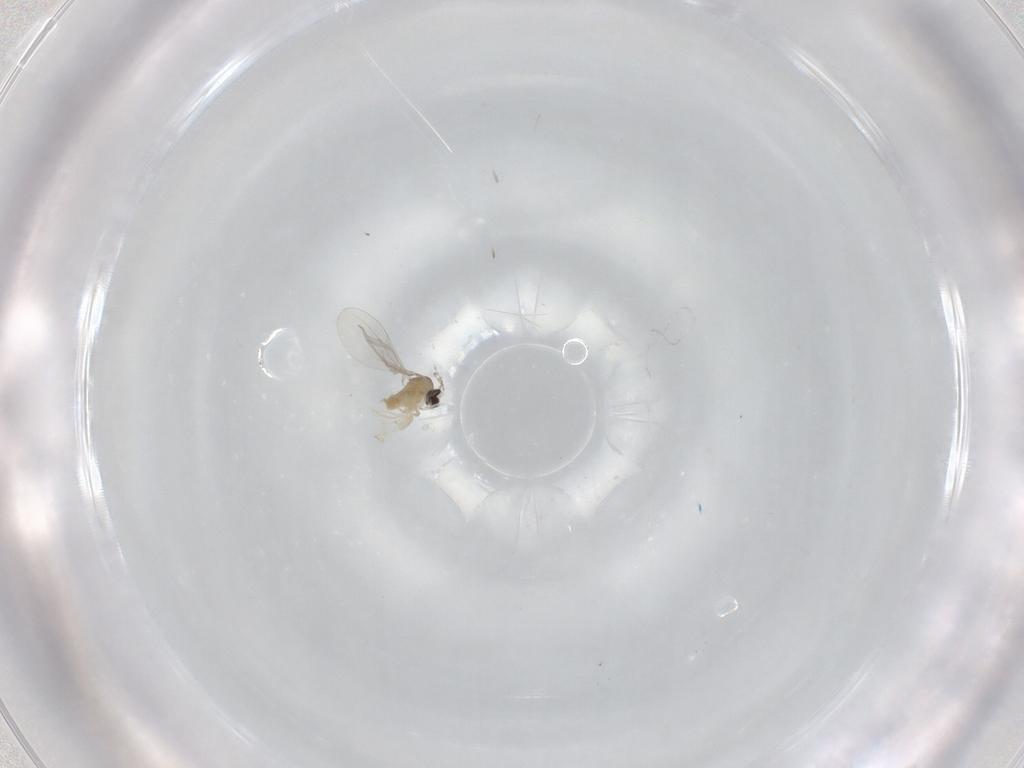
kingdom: Animalia
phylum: Arthropoda
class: Insecta
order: Diptera
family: Cecidomyiidae
